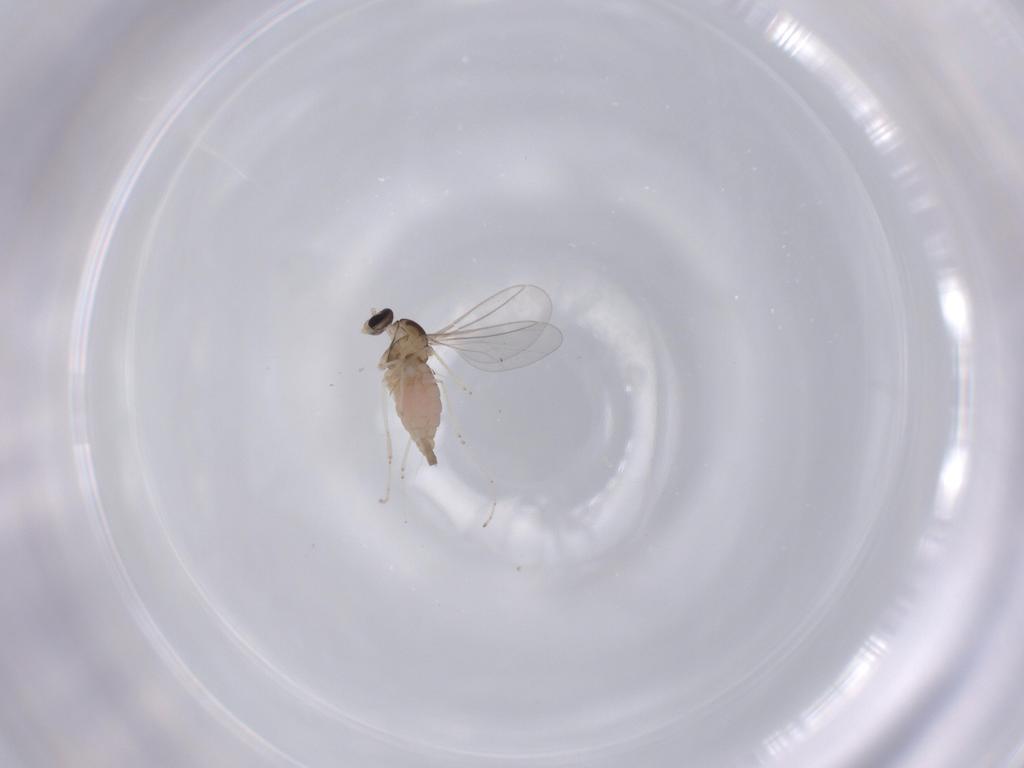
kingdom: Animalia
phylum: Arthropoda
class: Insecta
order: Diptera
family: Cecidomyiidae
